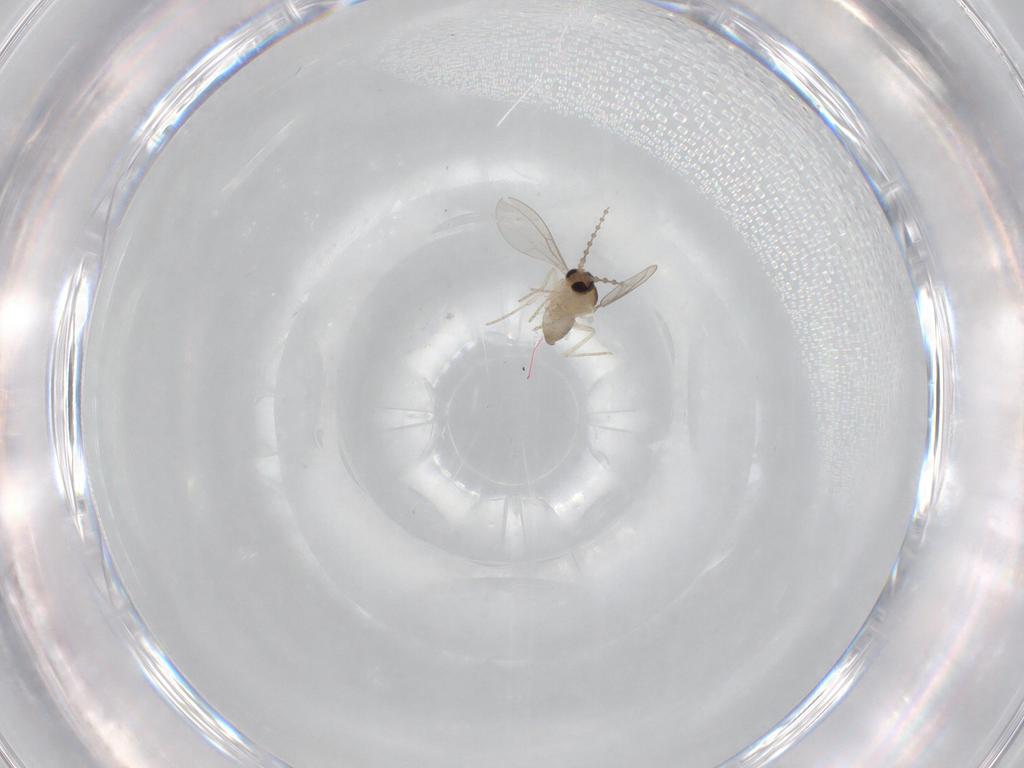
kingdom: Animalia
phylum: Arthropoda
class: Insecta
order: Diptera
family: Cecidomyiidae
